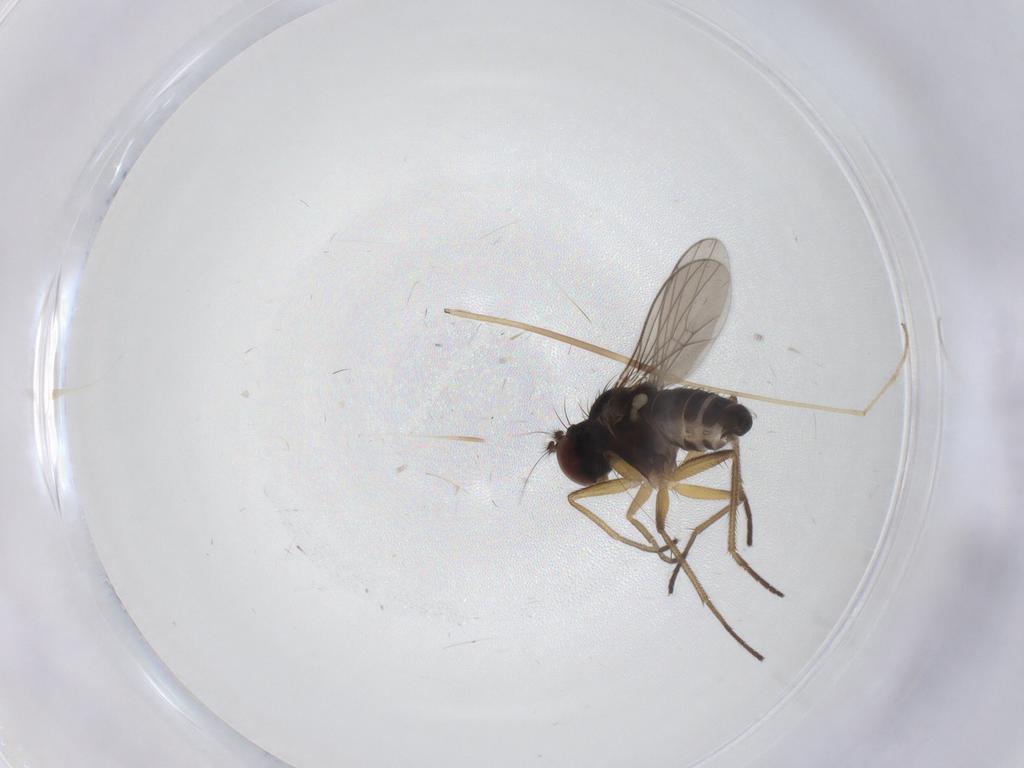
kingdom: Animalia
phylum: Arthropoda
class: Insecta
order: Diptera
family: Dolichopodidae
